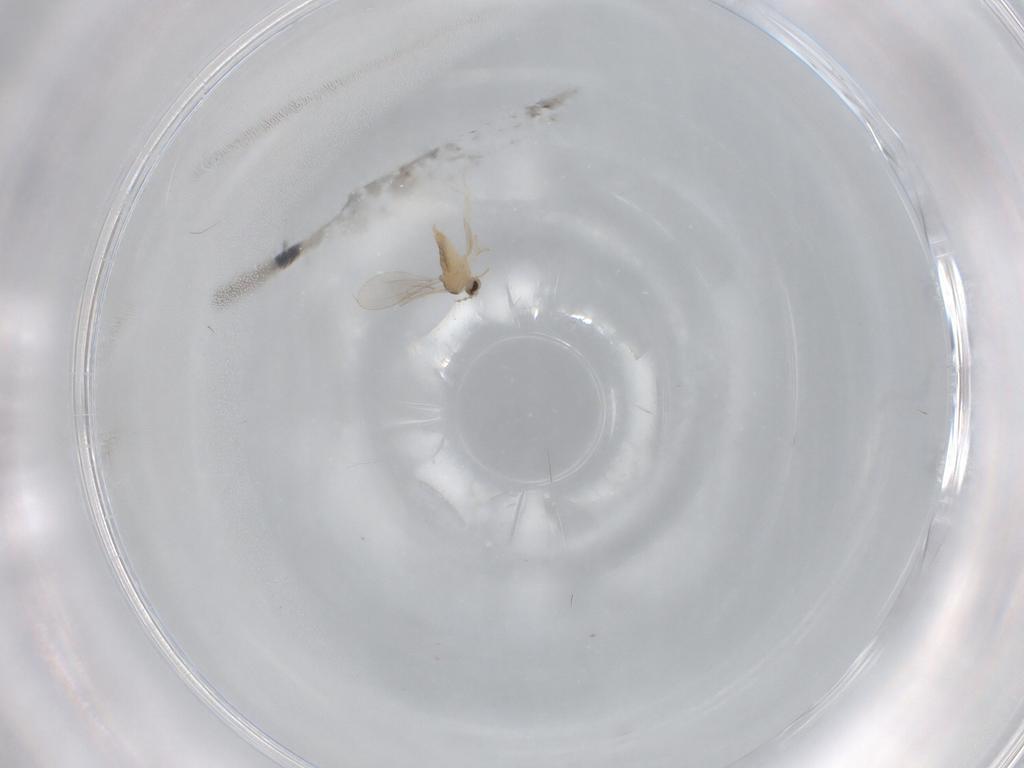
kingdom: Animalia
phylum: Arthropoda
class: Insecta
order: Diptera
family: Cecidomyiidae
